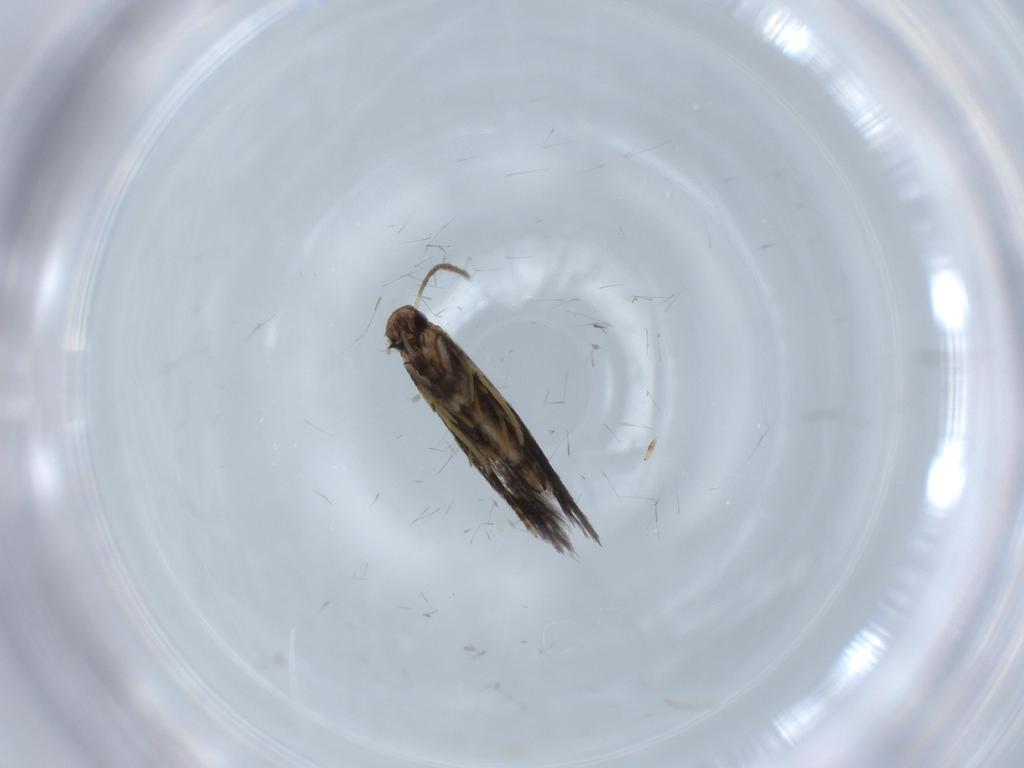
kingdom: Animalia
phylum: Arthropoda
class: Insecta
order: Lepidoptera
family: Heliozelidae
